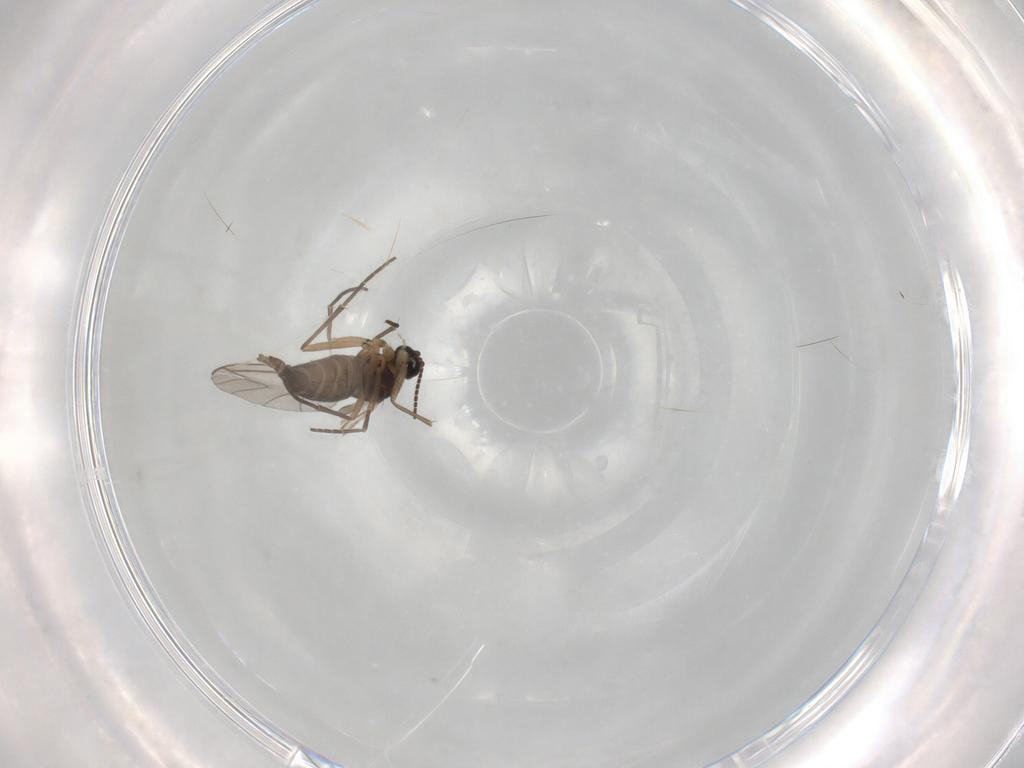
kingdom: Animalia
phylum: Arthropoda
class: Insecta
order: Diptera
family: Sciaridae
